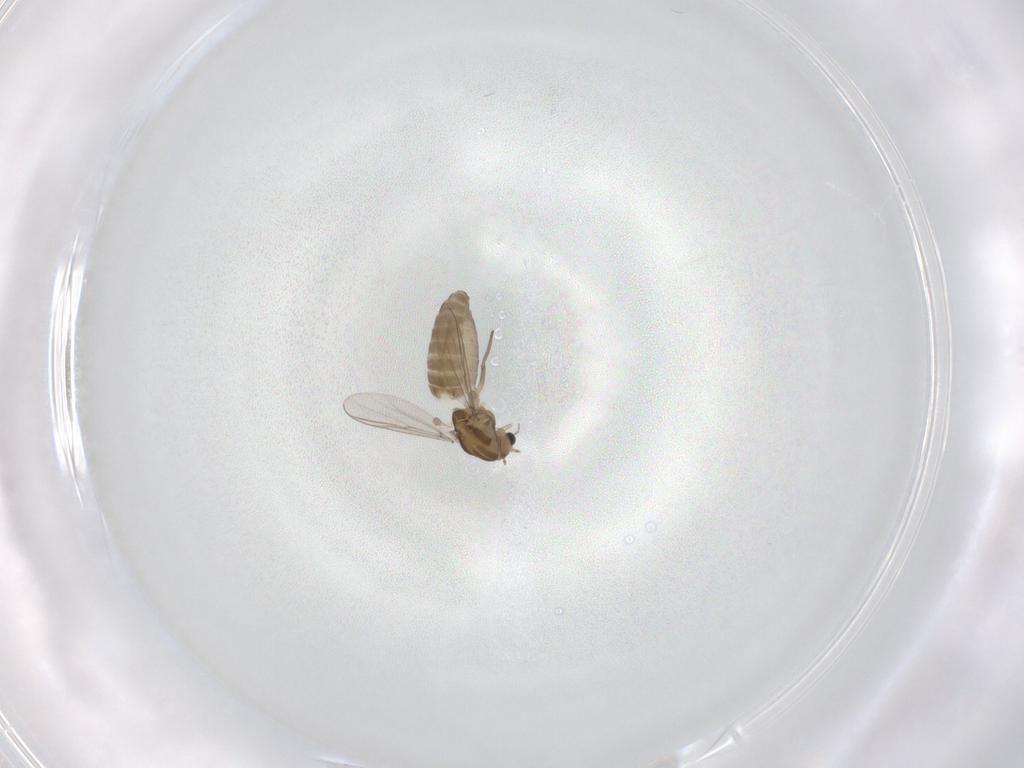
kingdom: Animalia
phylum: Arthropoda
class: Insecta
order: Diptera
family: Chironomidae
